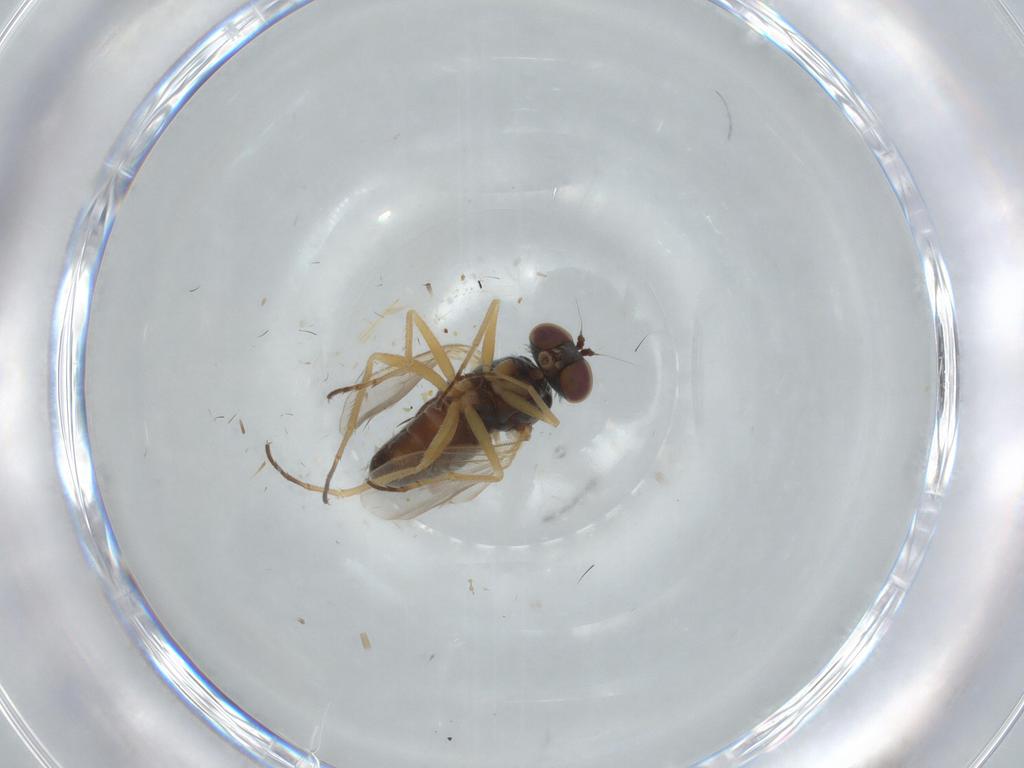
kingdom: Animalia
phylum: Arthropoda
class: Insecta
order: Diptera
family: Dolichopodidae
